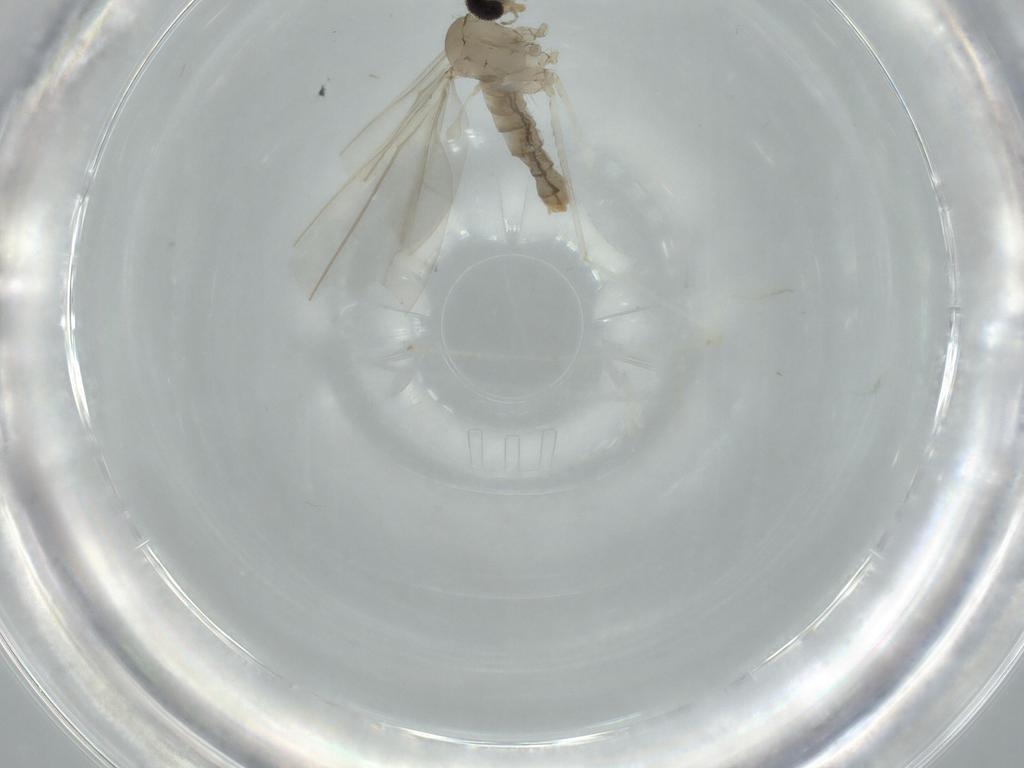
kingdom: Animalia
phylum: Arthropoda
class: Insecta
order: Diptera
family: Cecidomyiidae
